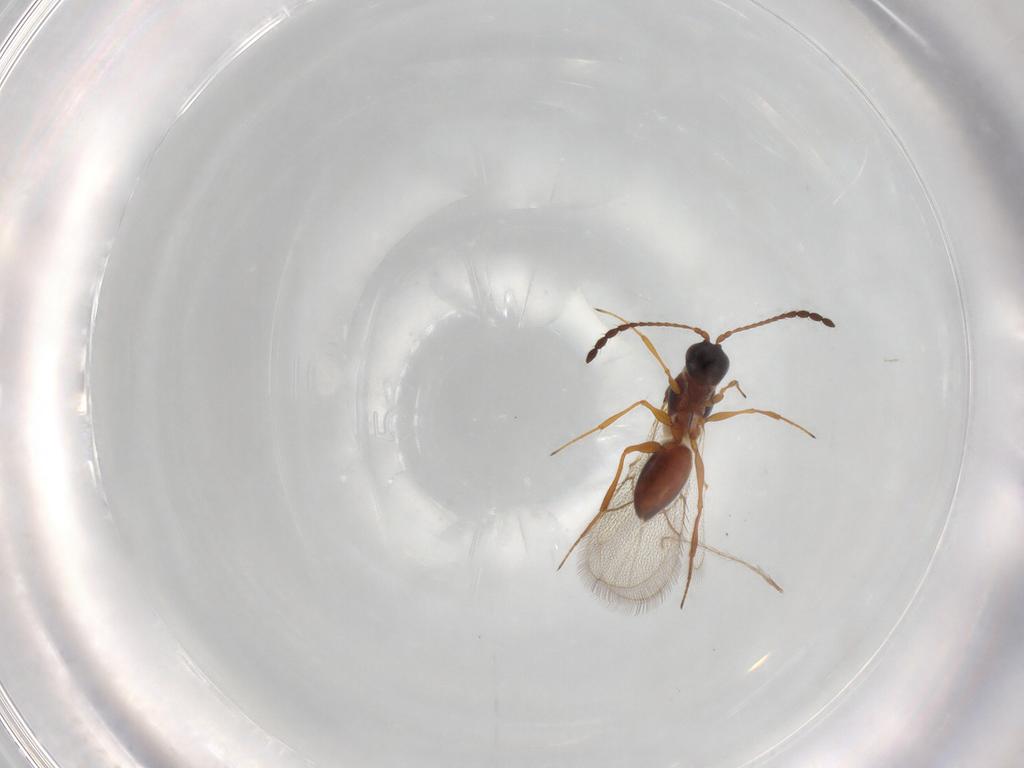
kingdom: Animalia
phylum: Arthropoda
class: Insecta
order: Hymenoptera
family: Figitidae
